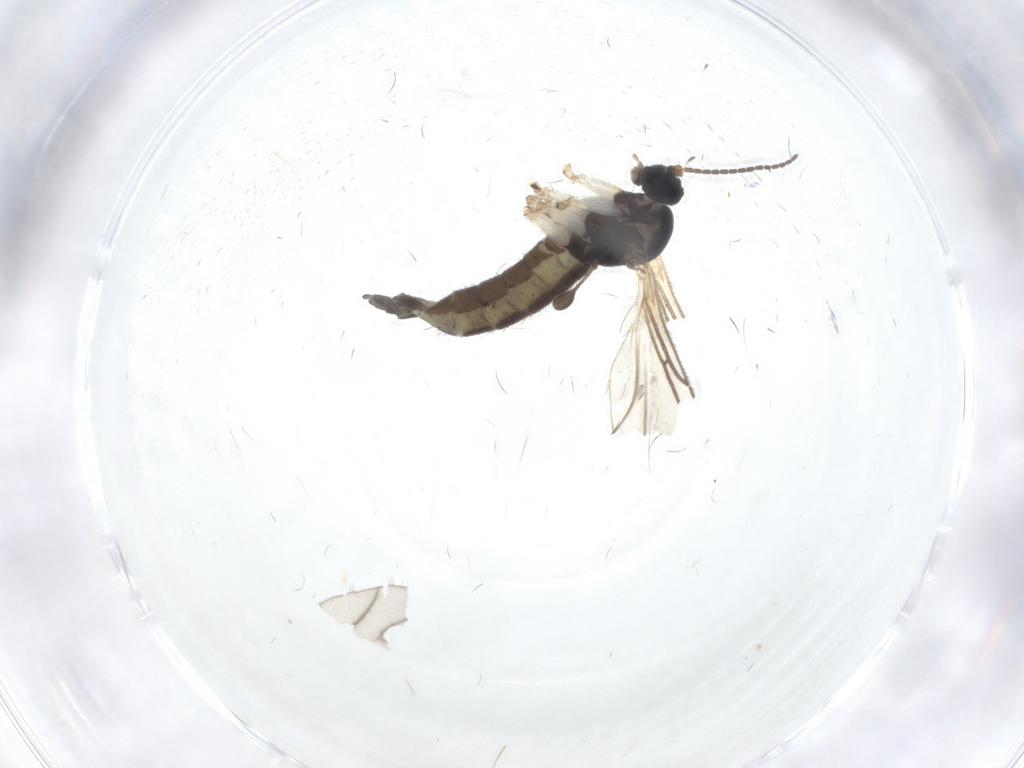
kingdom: Animalia
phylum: Arthropoda
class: Insecta
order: Diptera
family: Sciaridae
